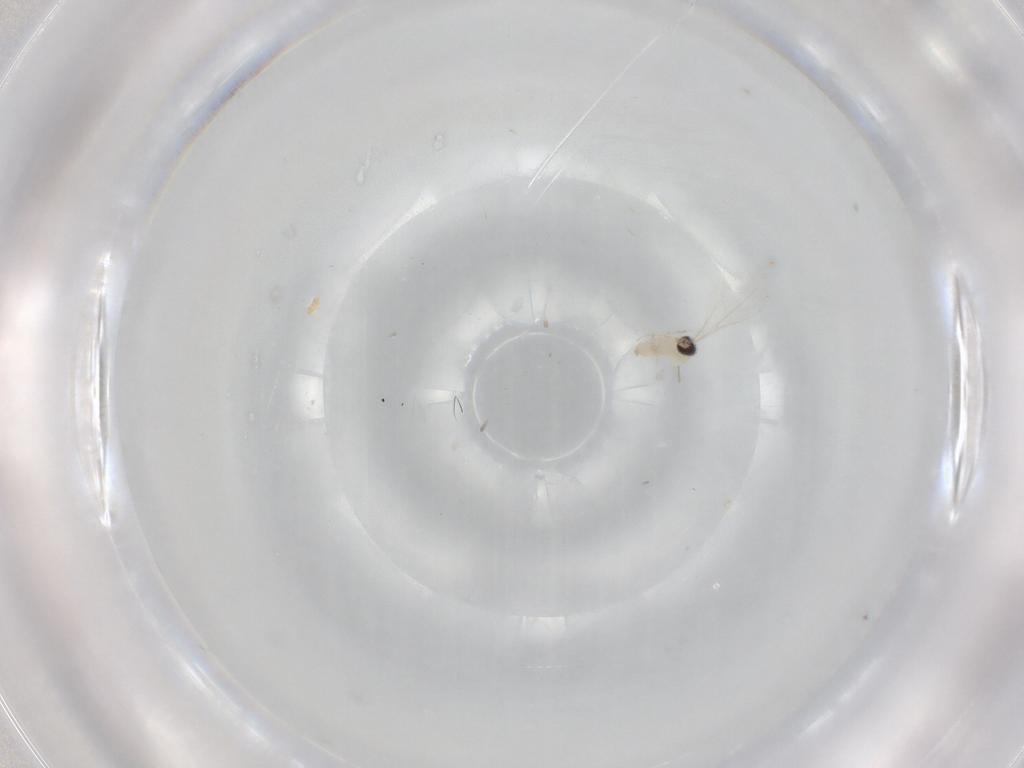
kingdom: Animalia
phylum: Arthropoda
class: Insecta
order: Diptera
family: Cecidomyiidae
